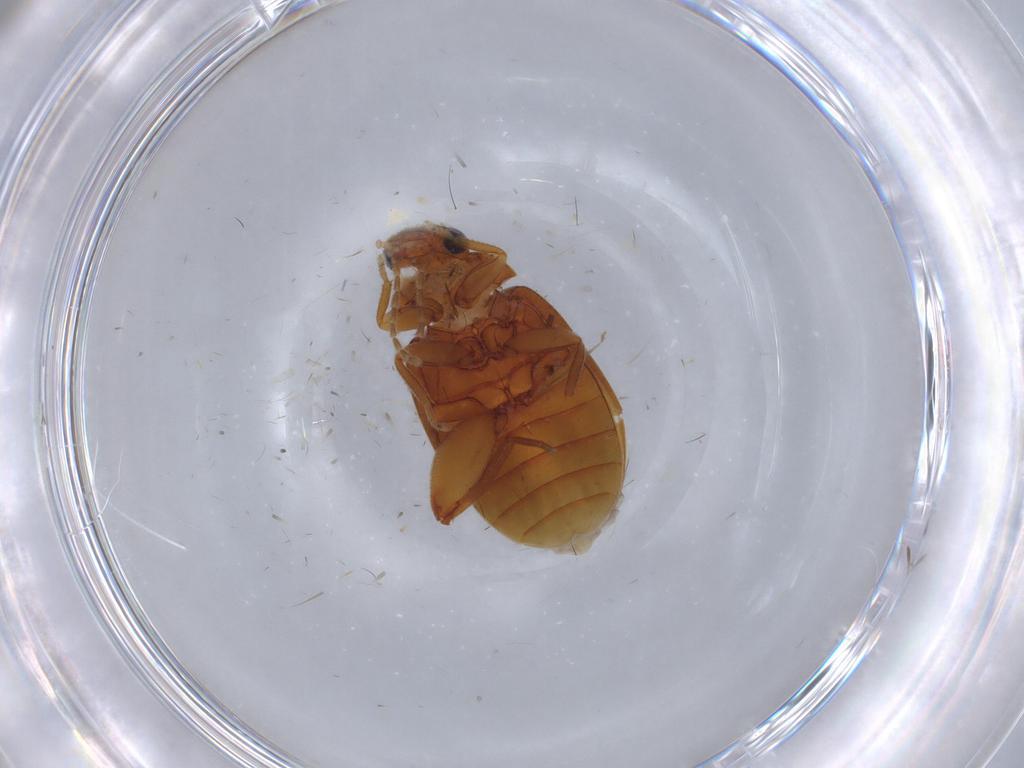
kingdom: Animalia
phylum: Arthropoda
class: Insecta
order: Coleoptera
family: Scirtidae
